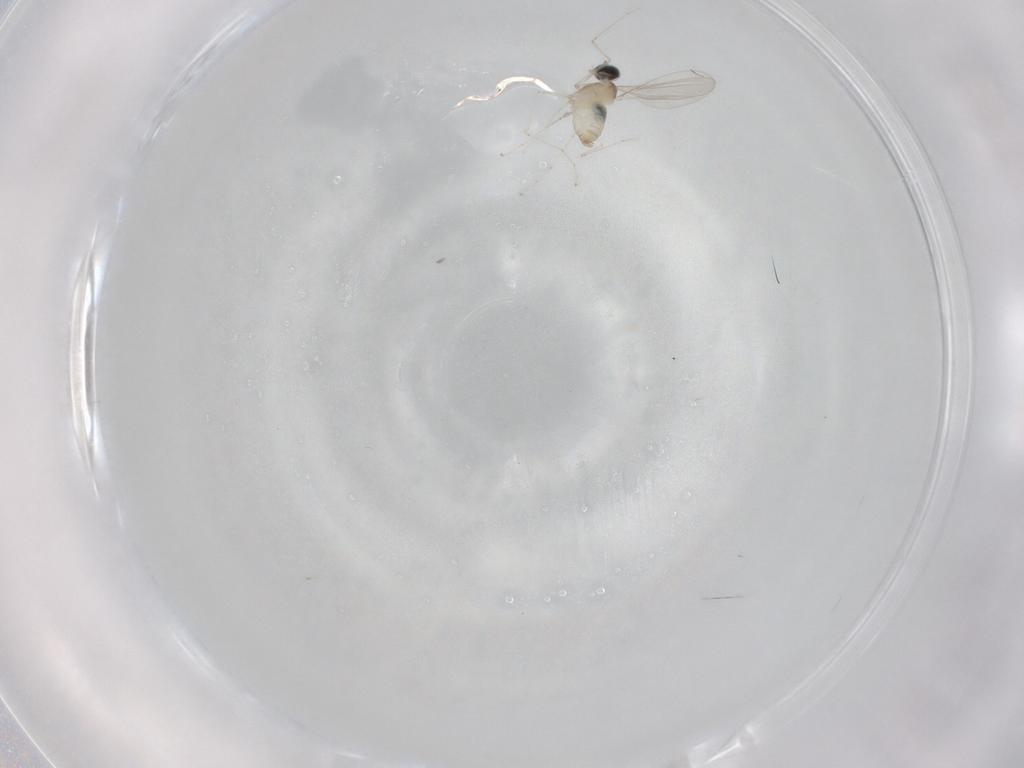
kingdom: Animalia
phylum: Arthropoda
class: Insecta
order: Diptera
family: Cecidomyiidae
